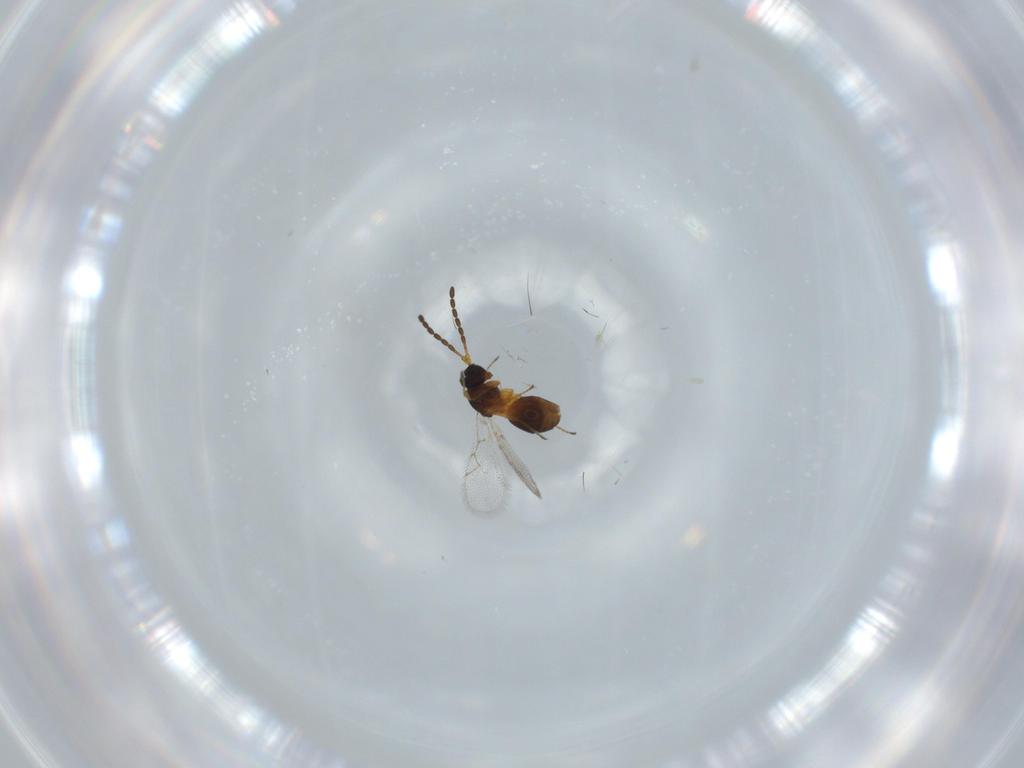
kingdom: Animalia
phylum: Arthropoda
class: Insecta
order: Hymenoptera
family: Figitidae
